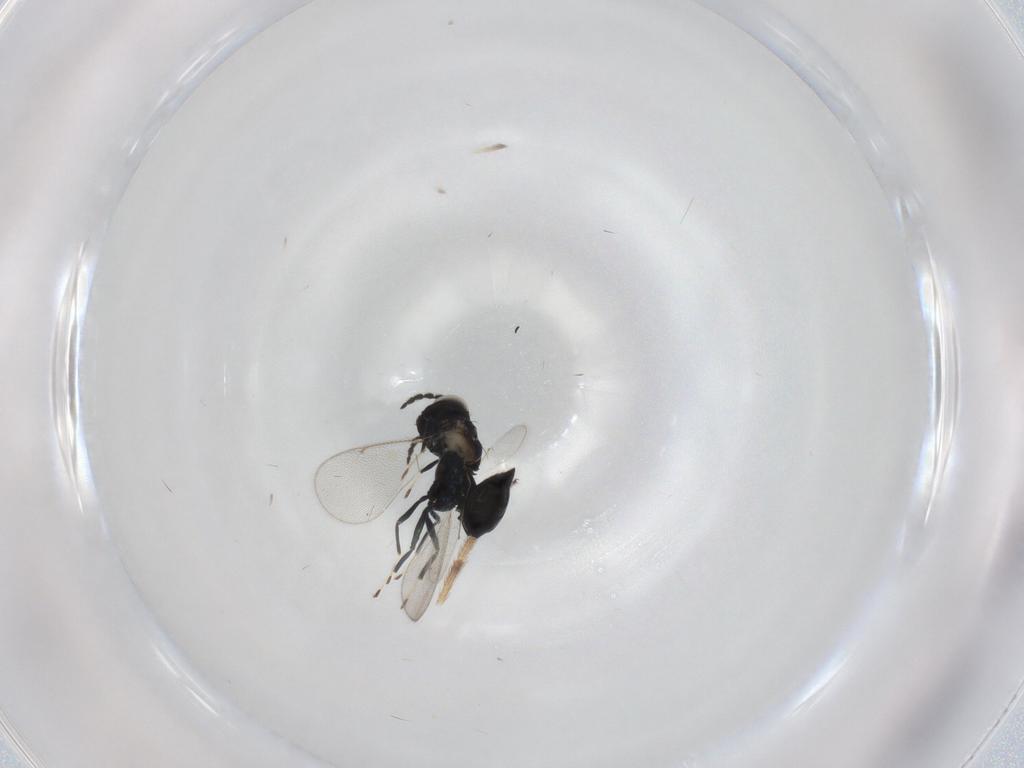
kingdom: Animalia
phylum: Arthropoda
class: Insecta
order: Hymenoptera
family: Eulophidae
